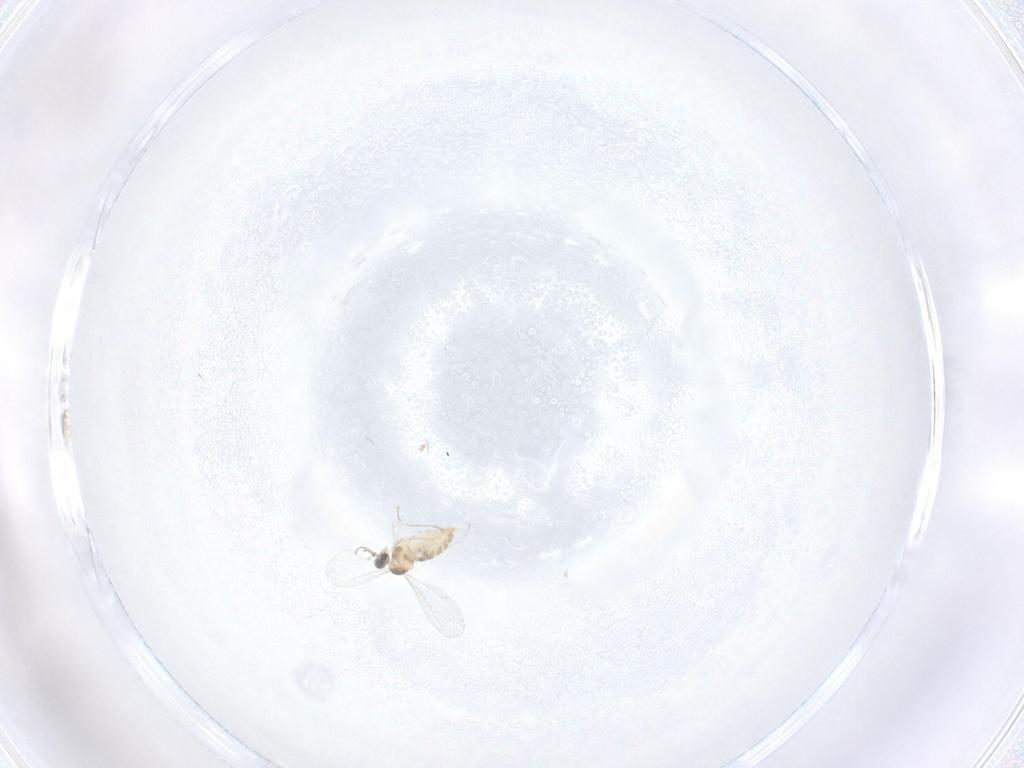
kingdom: Animalia
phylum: Arthropoda
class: Insecta
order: Diptera
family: Cecidomyiidae
